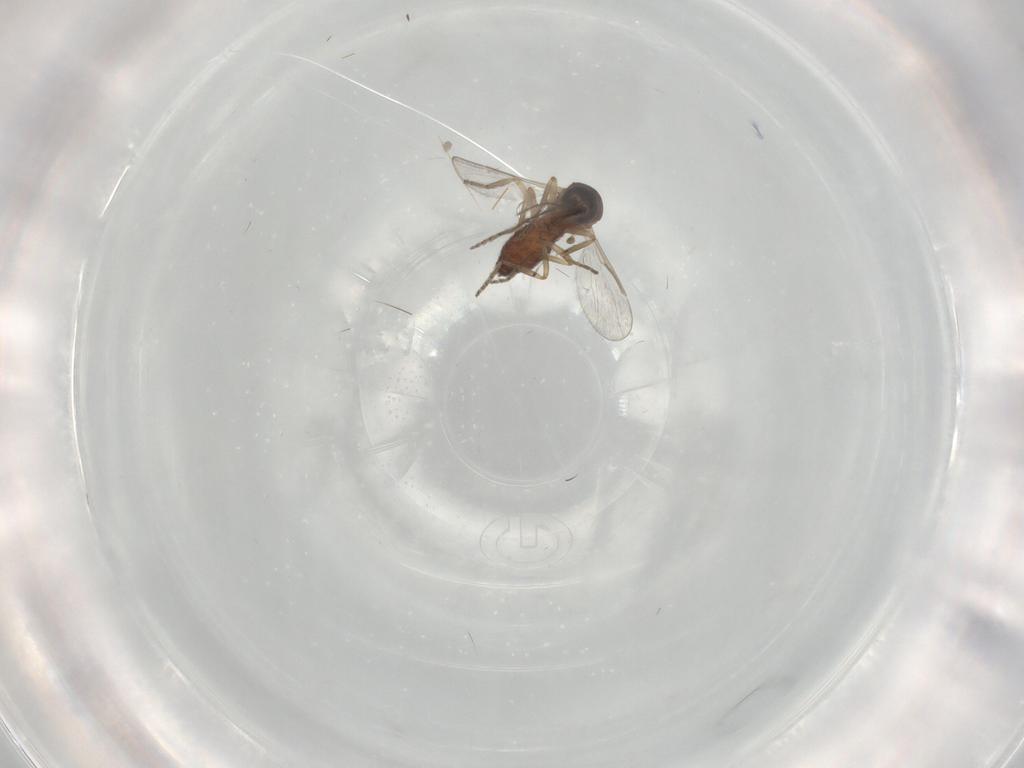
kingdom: Animalia
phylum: Arthropoda
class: Insecta
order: Diptera
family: Ceratopogonidae
